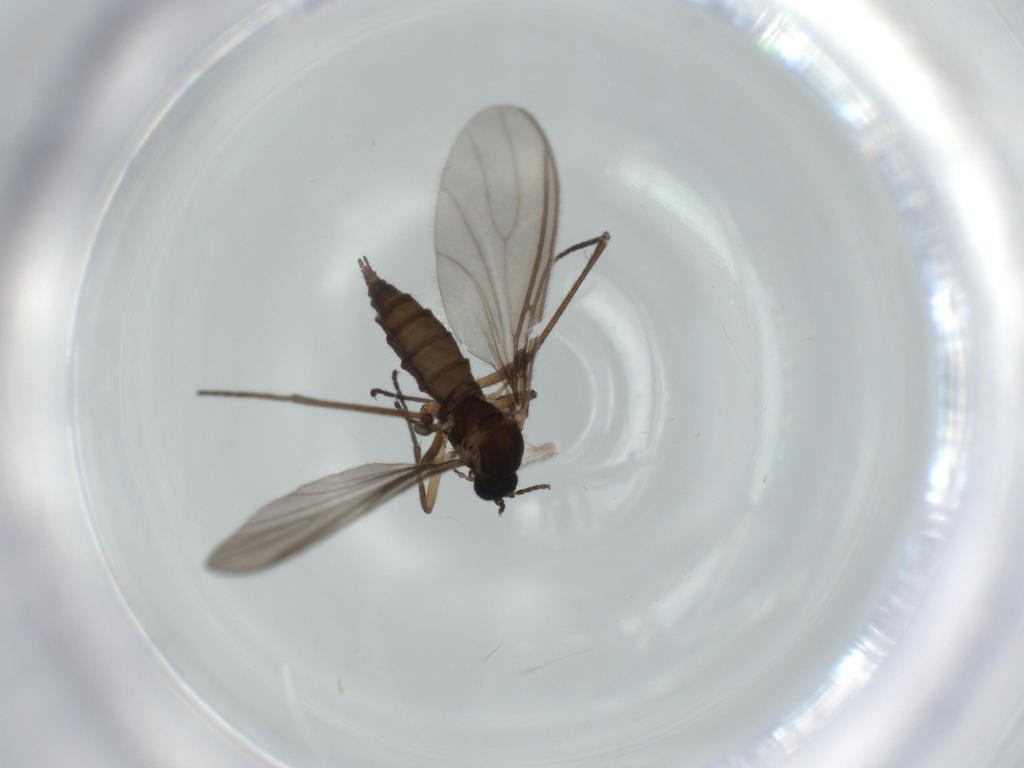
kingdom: Animalia
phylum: Arthropoda
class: Insecta
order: Diptera
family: Sciaridae
